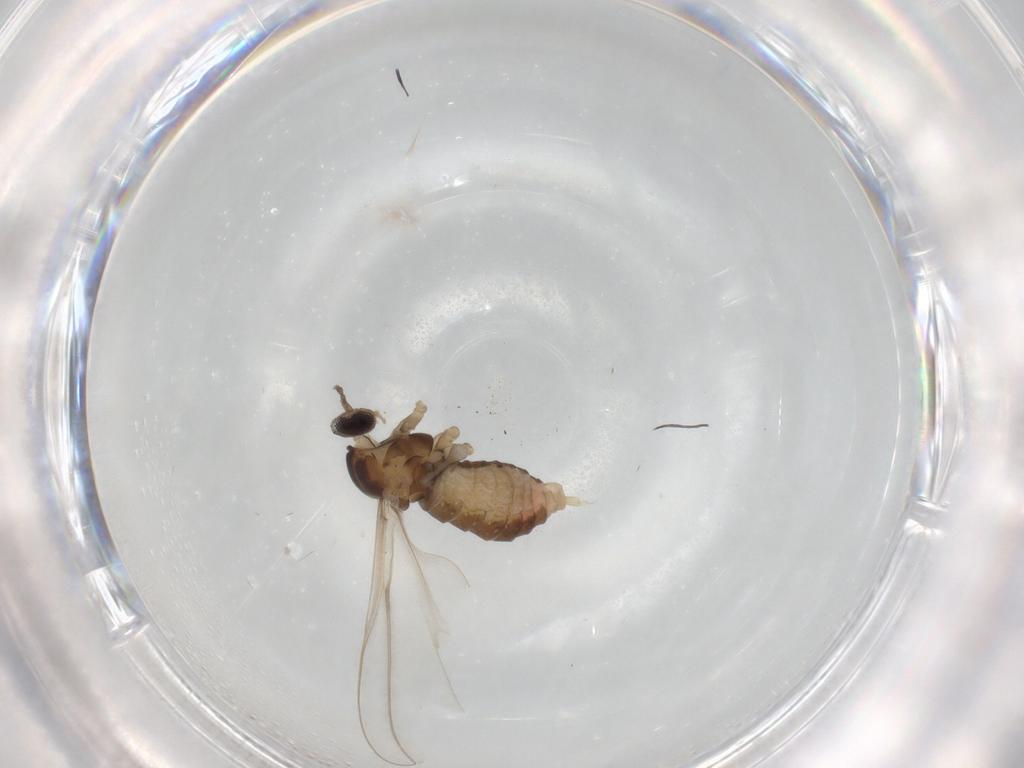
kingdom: Animalia
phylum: Arthropoda
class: Insecta
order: Diptera
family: Cecidomyiidae
